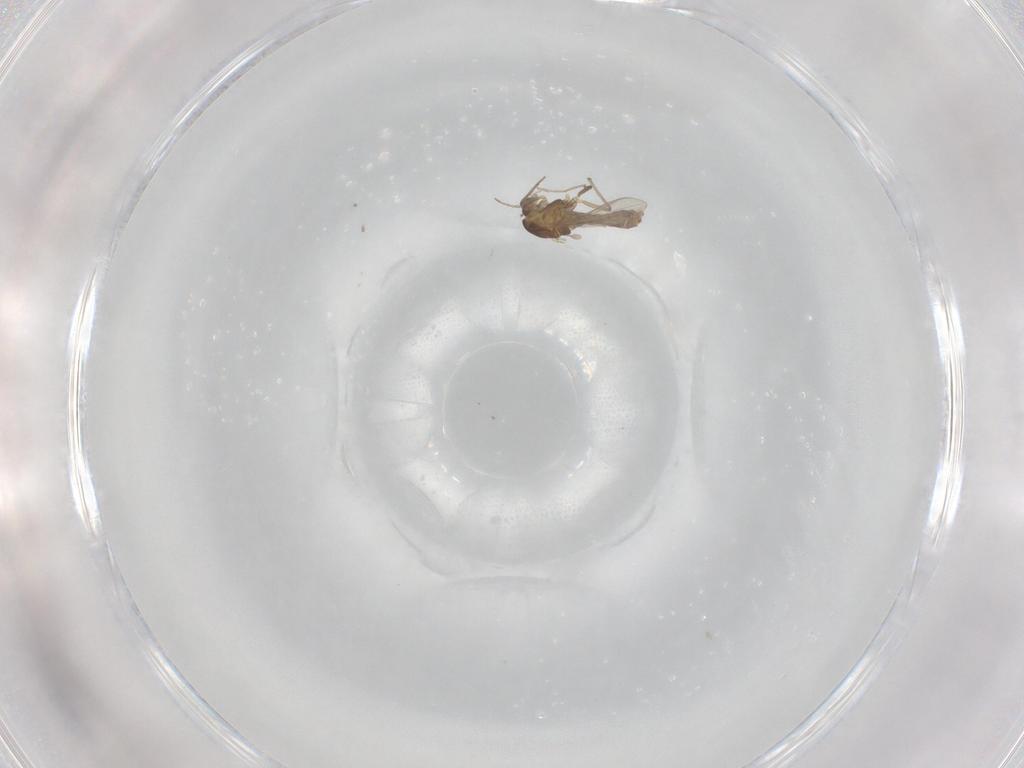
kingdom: Animalia
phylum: Arthropoda
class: Insecta
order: Diptera
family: Chironomidae
